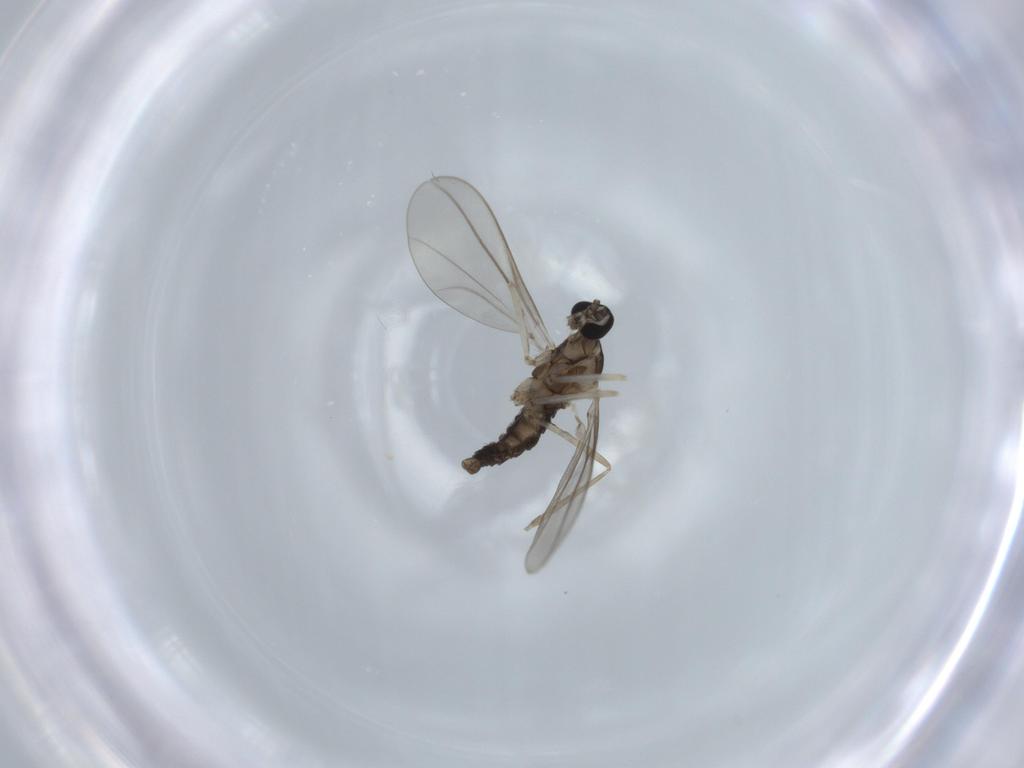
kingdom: Animalia
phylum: Arthropoda
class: Insecta
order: Diptera
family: Cecidomyiidae
